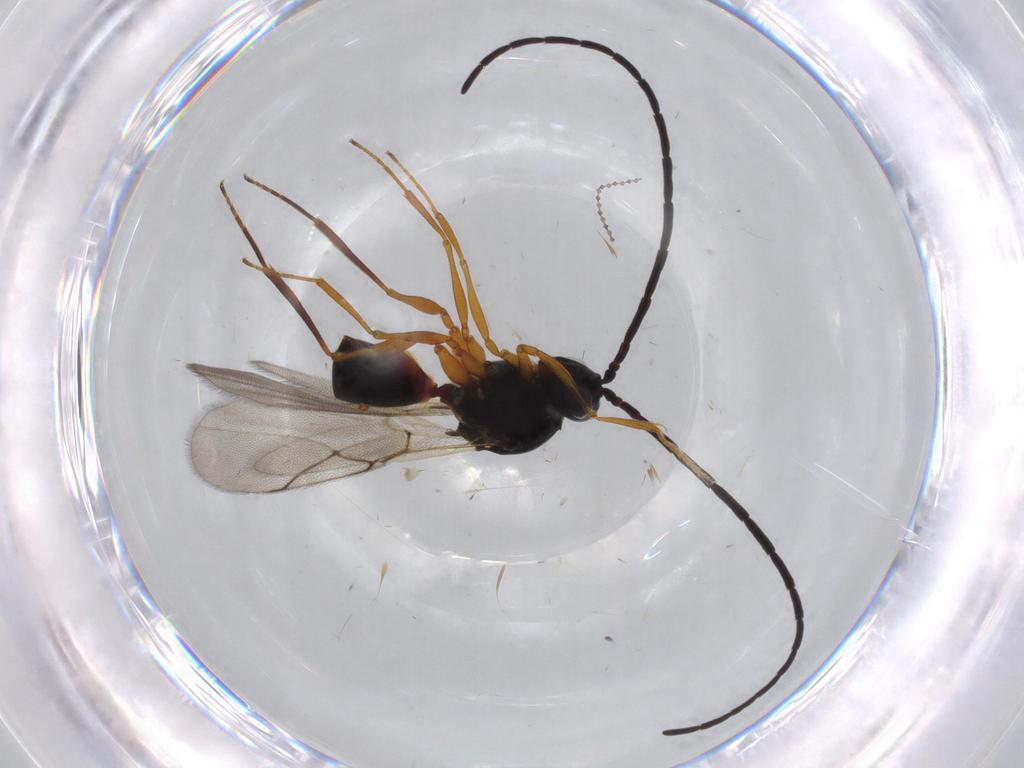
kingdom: Animalia
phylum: Arthropoda
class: Insecta
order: Hymenoptera
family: Figitidae
